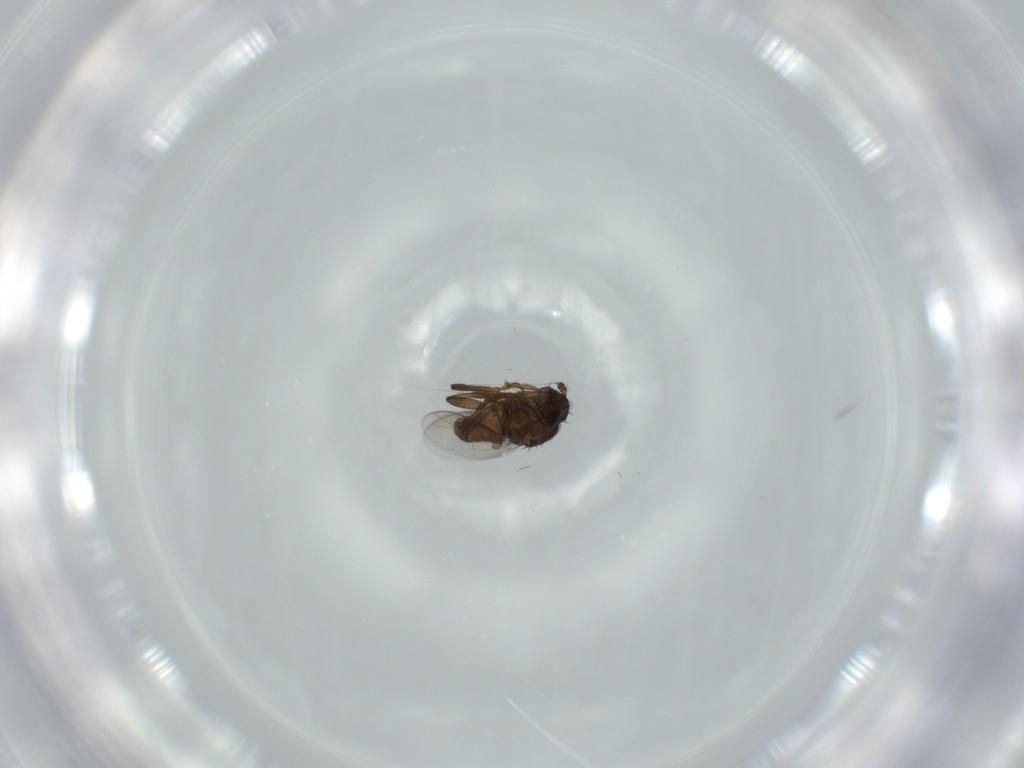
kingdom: Animalia
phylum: Arthropoda
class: Insecta
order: Diptera
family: Sphaeroceridae
